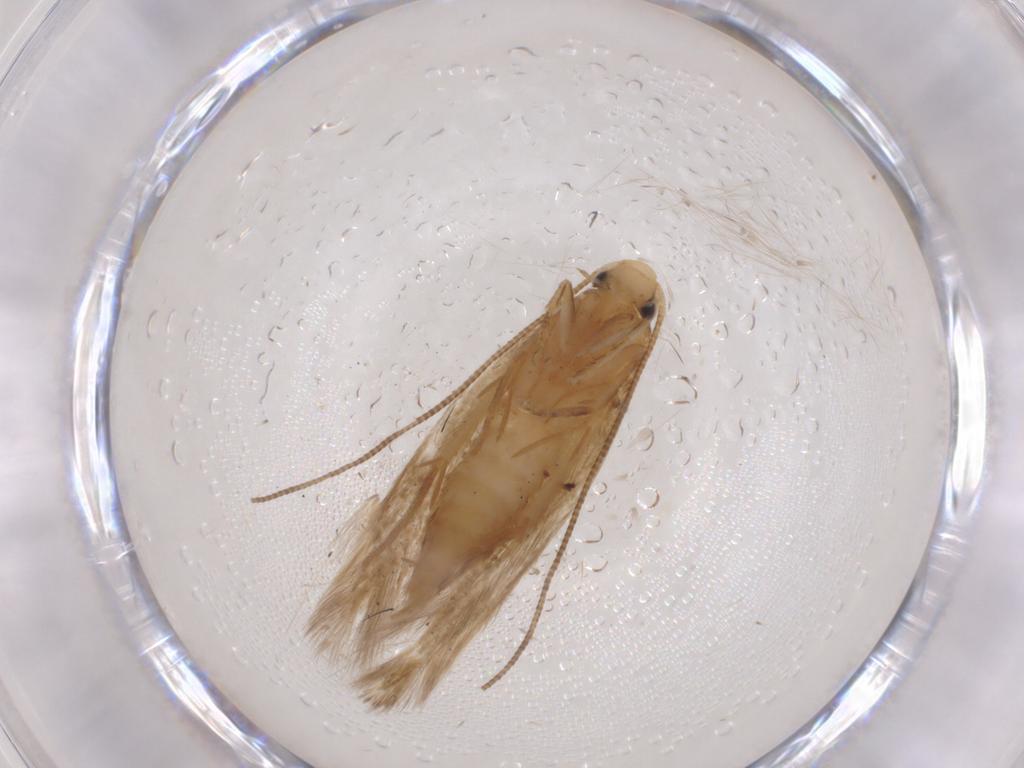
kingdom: Animalia
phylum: Arthropoda
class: Insecta
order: Lepidoptera
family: Tineidae
